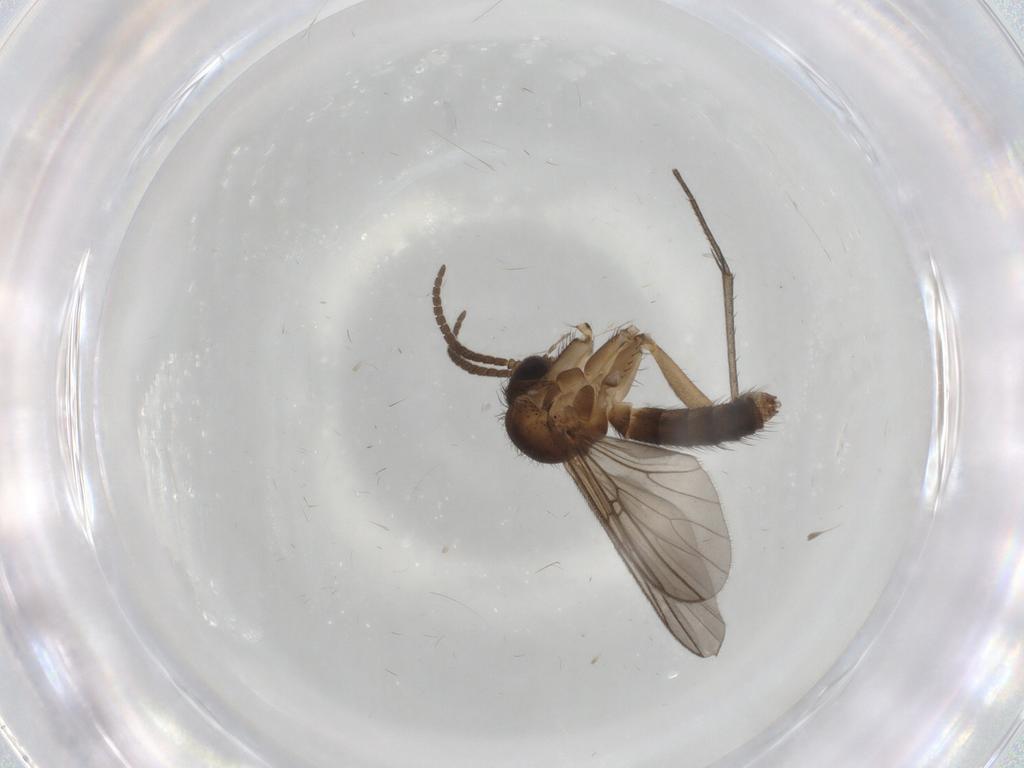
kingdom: Animalia
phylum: Arthropoda
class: Insecta
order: Diptera
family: Mycetophilidae
